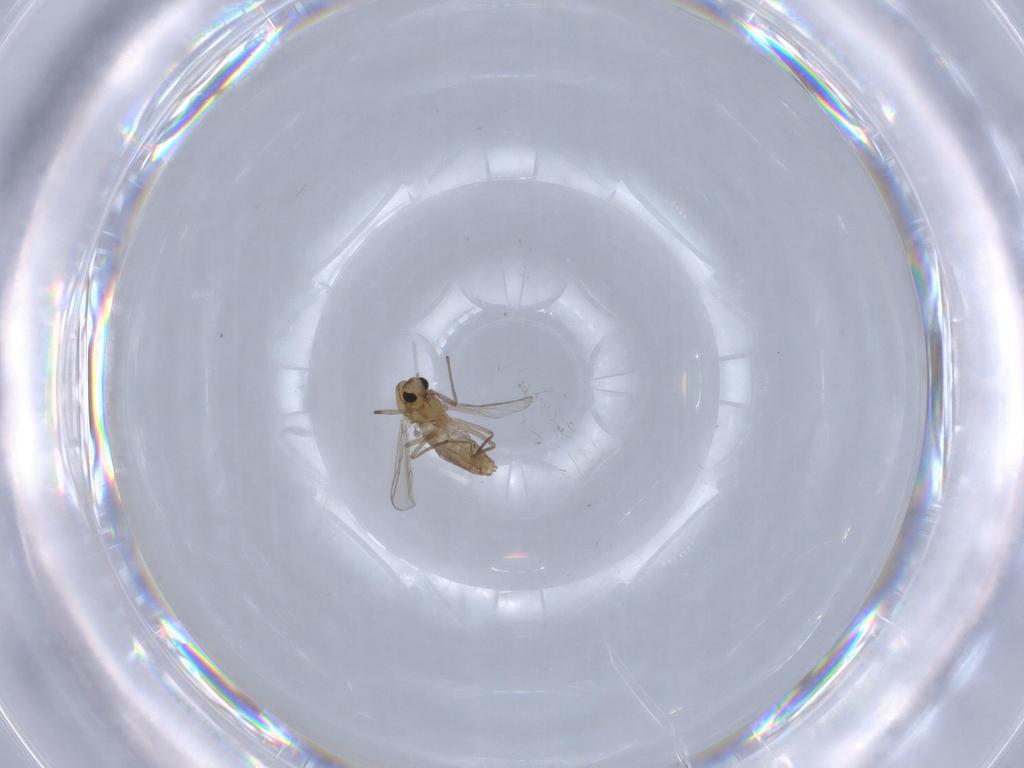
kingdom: Animalia
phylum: Arthropoda
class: Insecta
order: Diptera
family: Chironomidae
